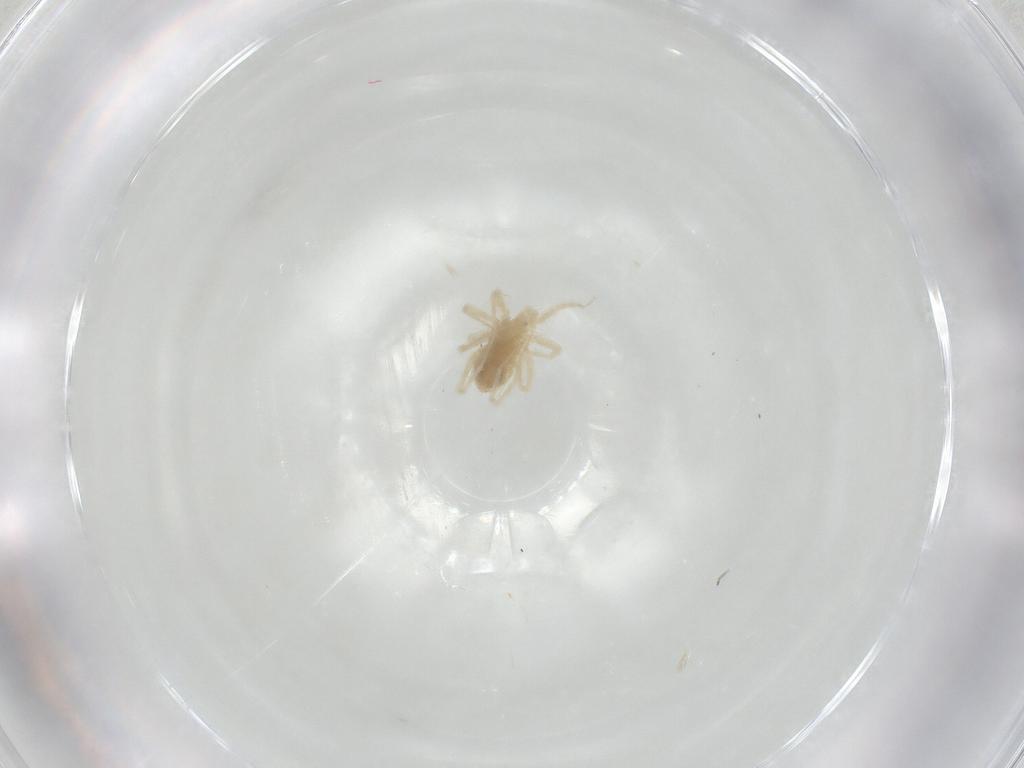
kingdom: Animalia
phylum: Arthropoda
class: Arachnida
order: Trombidiformes
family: Anystidae
